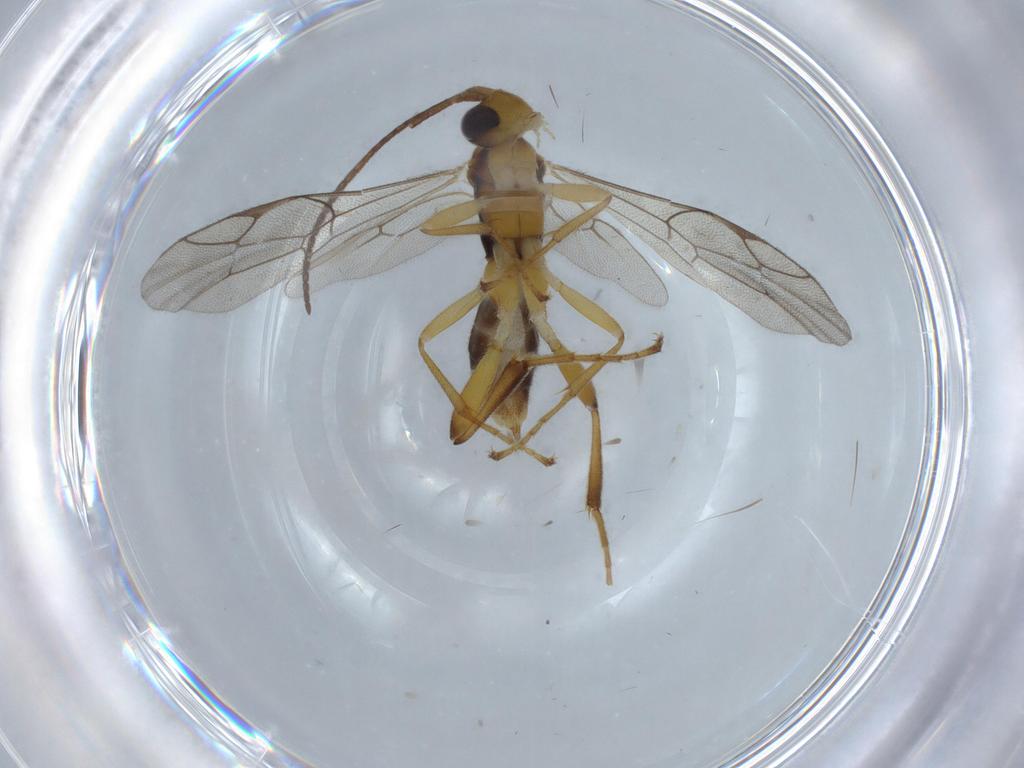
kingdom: Animalia
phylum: Arthropoda
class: Insecta
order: Hymenoptera
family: Ichneumonidae
